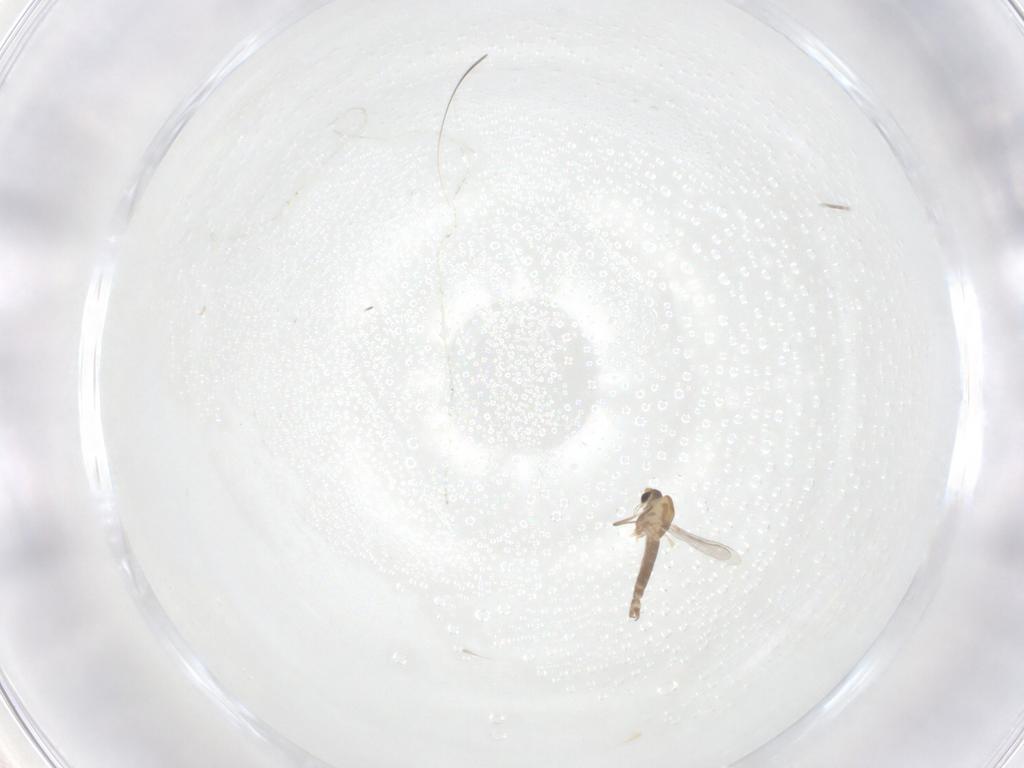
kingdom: Animalia
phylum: Arthropoda
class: Insecta
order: Diptera
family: Chironomidae
